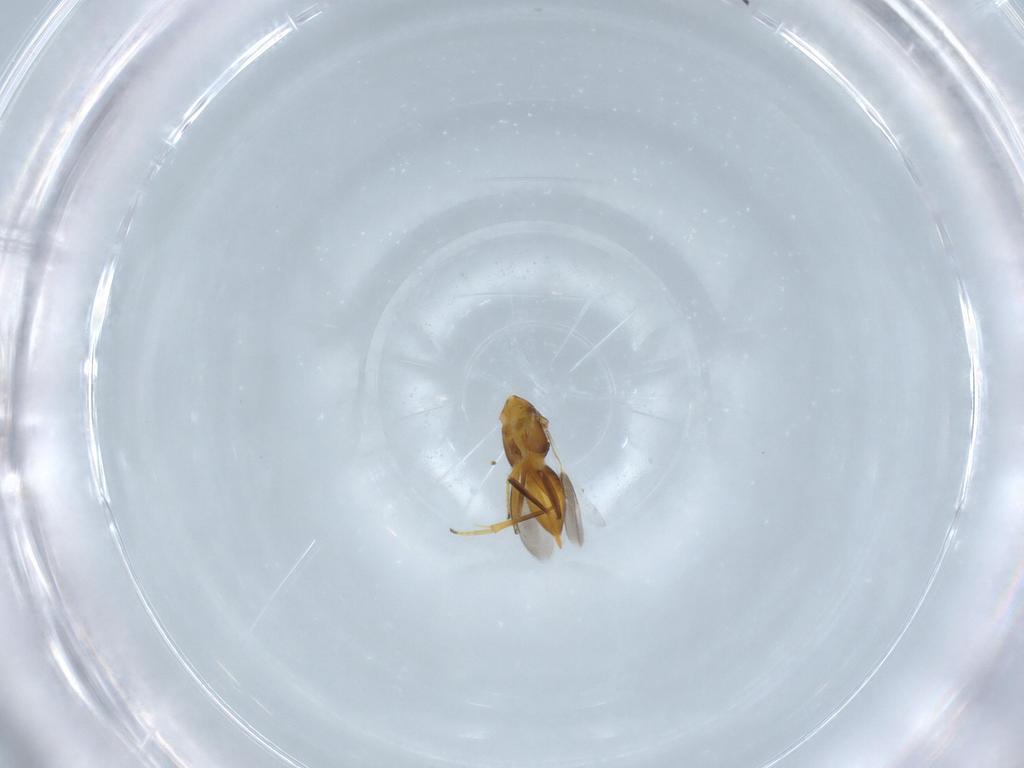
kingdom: Animalia
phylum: Arthropoda
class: Insecta
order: Hymenoptera
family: Encyrtidae
